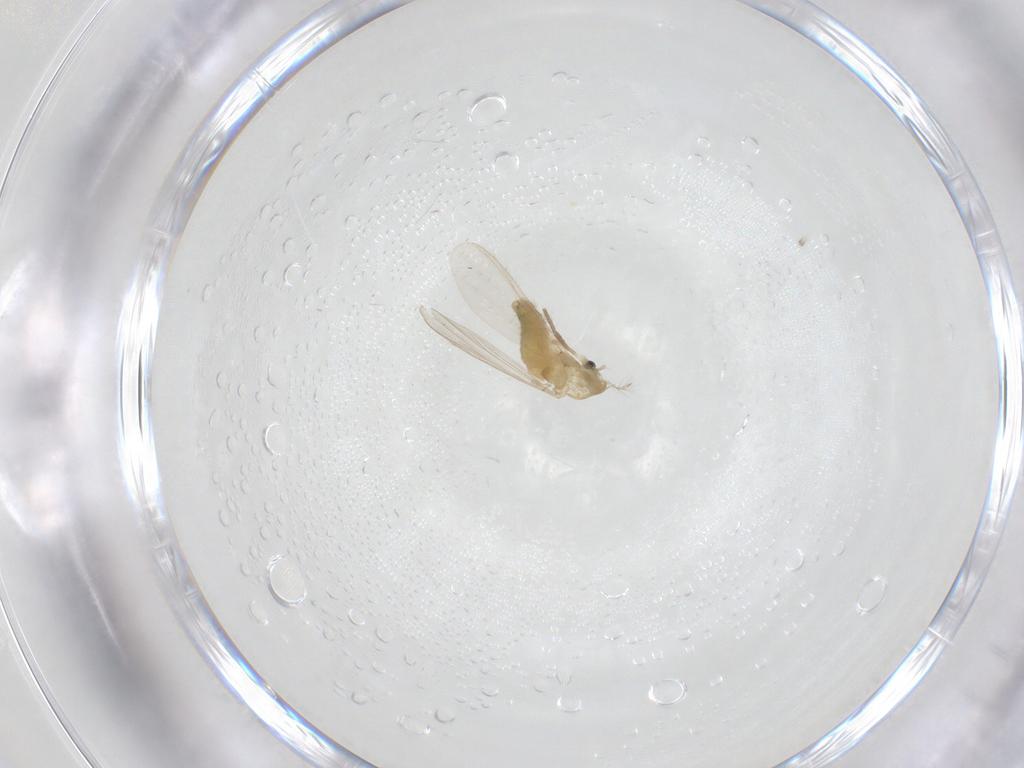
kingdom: Animalia
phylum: Arthropoda
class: Insecta
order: Diptera
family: Chironomidae
